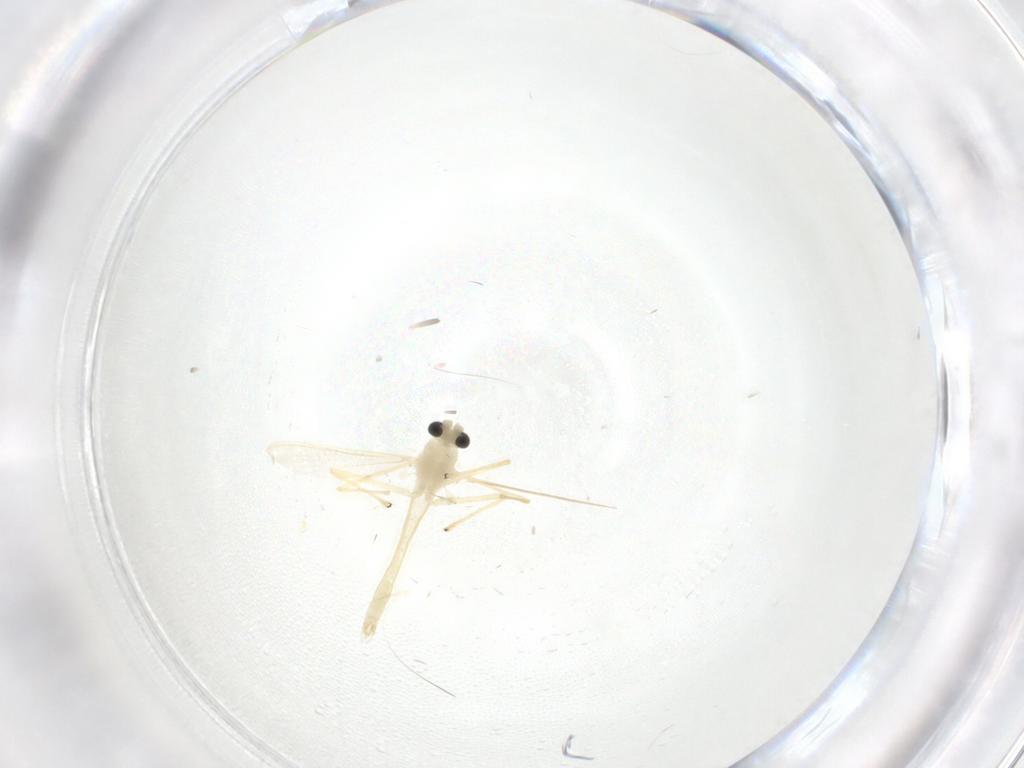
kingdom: Animalia
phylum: Arthropoda
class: Insecta
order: Diptera
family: Chironomidae
